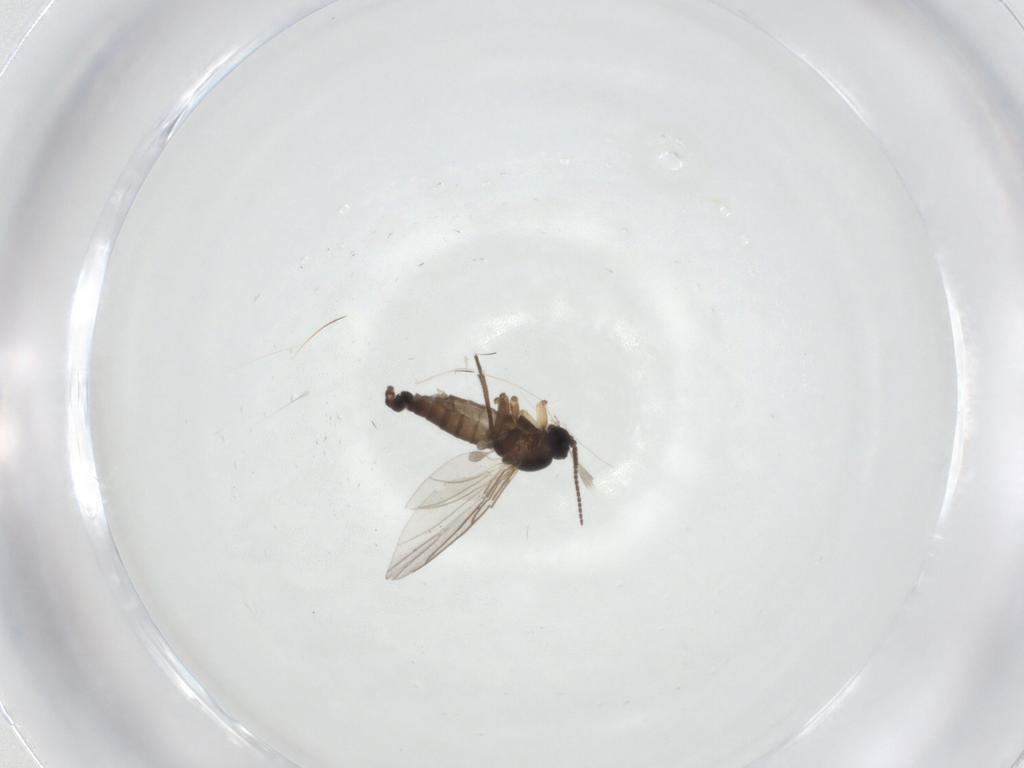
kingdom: Animalia
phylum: Arthropoda
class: Insecta
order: Diptera
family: Sciaridae
